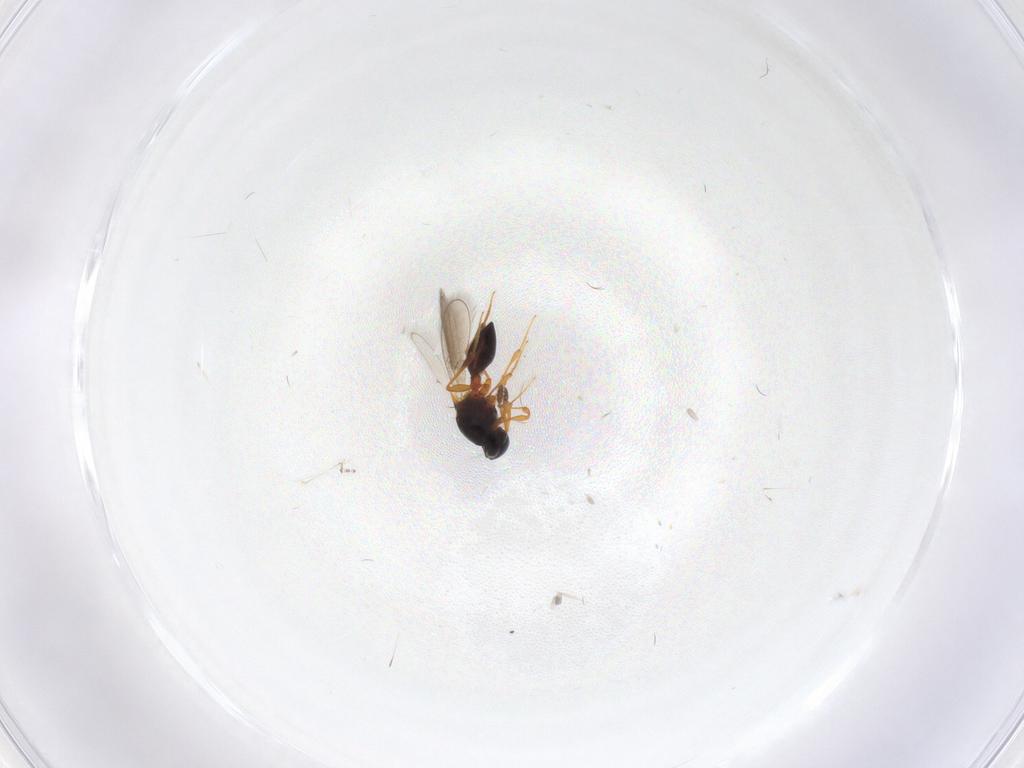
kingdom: Animalia
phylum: Arthropoda
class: Insecta
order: Hymenoptera
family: Platygastridae
